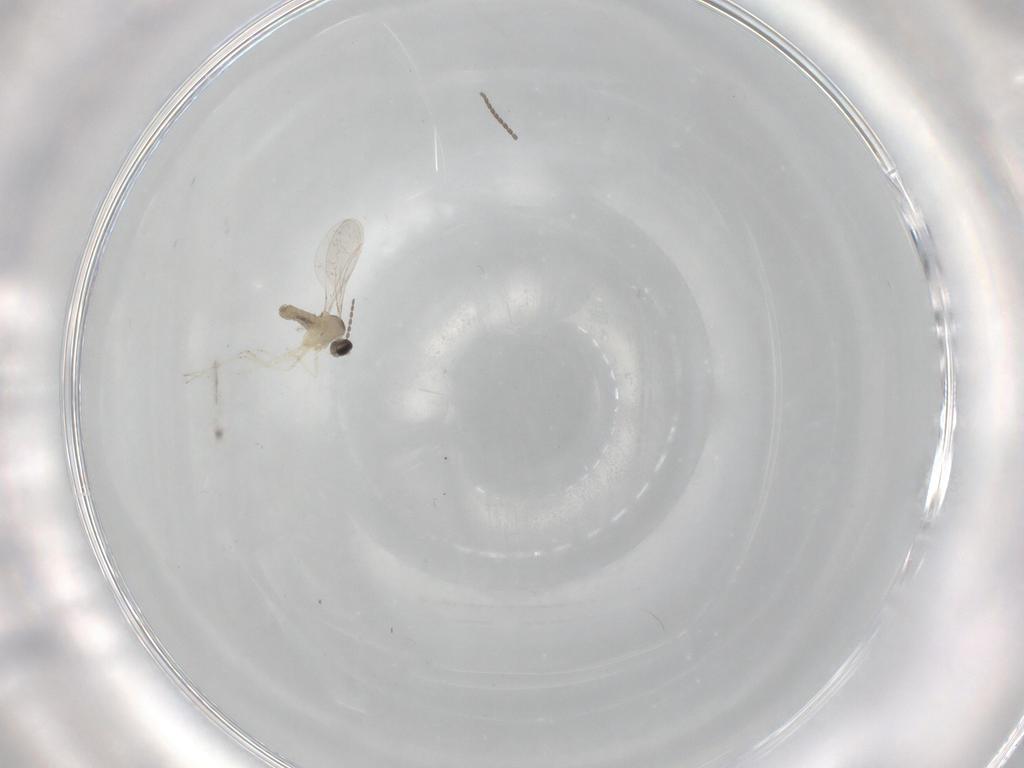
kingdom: Animalia
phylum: Arthropoda
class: Insecta
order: Diptera
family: Cecidomyiidae
